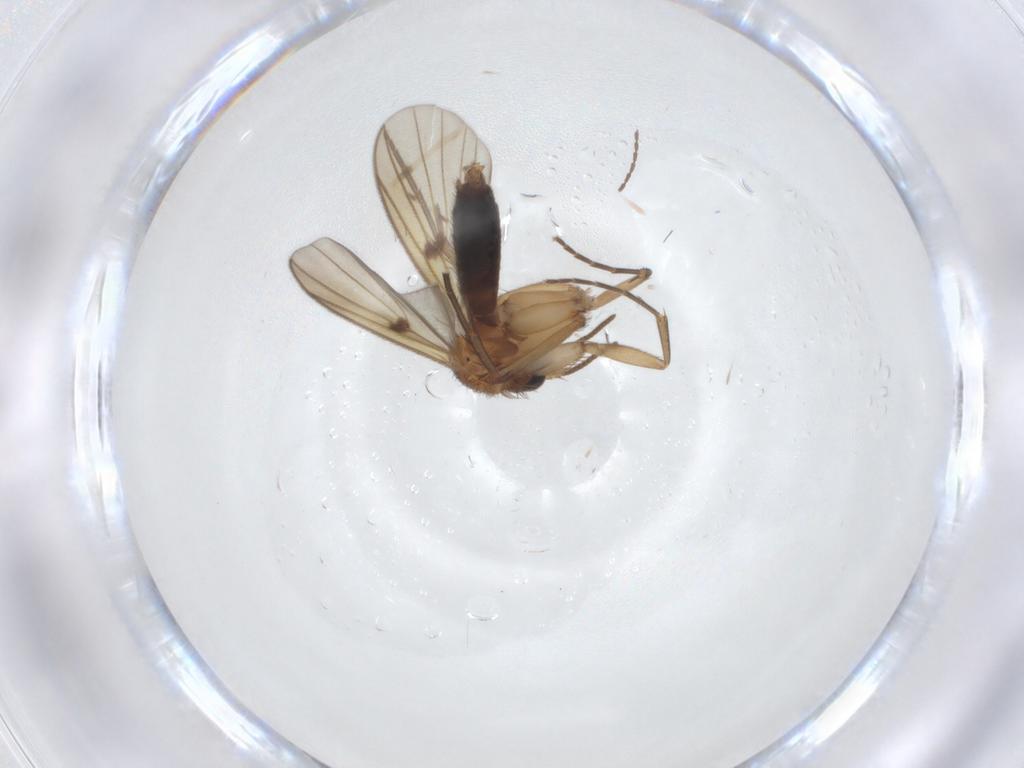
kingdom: Animalia
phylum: Arthropoda
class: Insecta
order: Diptera
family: Chironomidae
